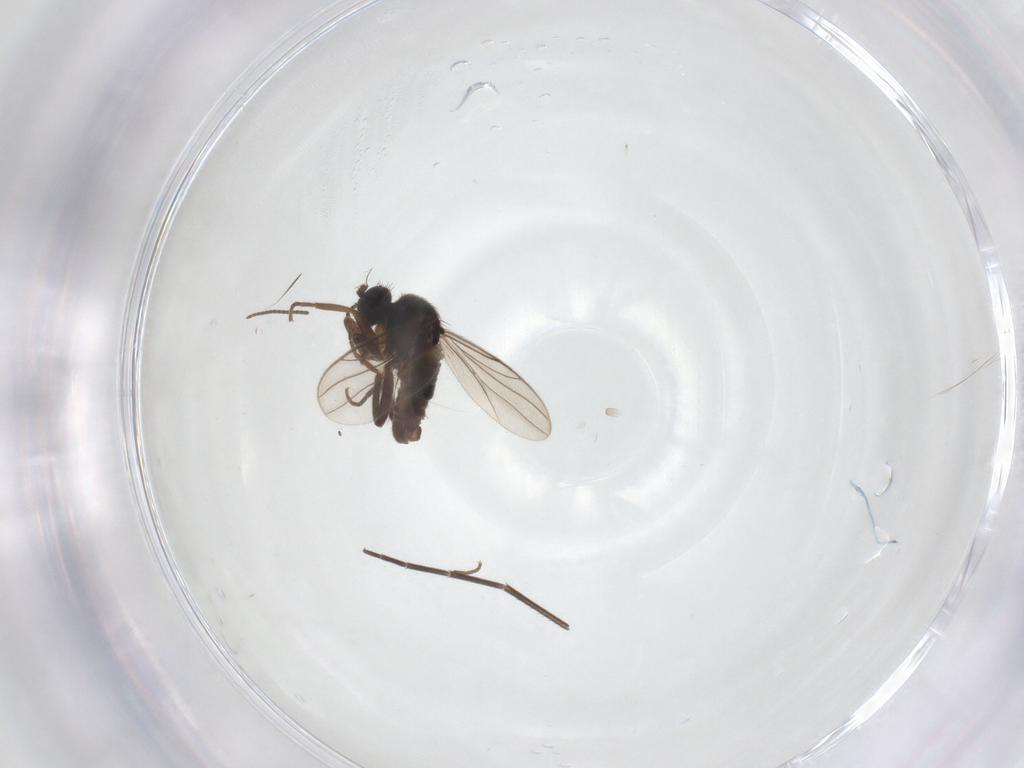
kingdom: Animalia
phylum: Arthropoda
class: Insecta
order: Diptera
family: Hybotidae
